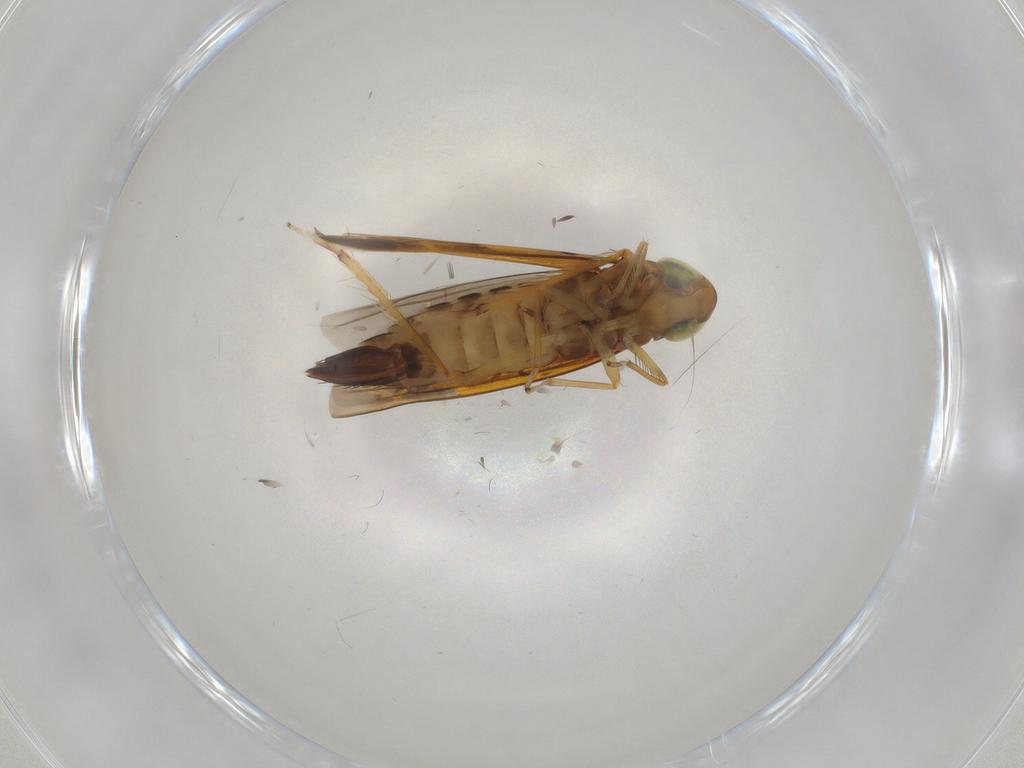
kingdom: Animalia
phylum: Arthropoda
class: Insecta
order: Hemiptera
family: Cicadellidae
